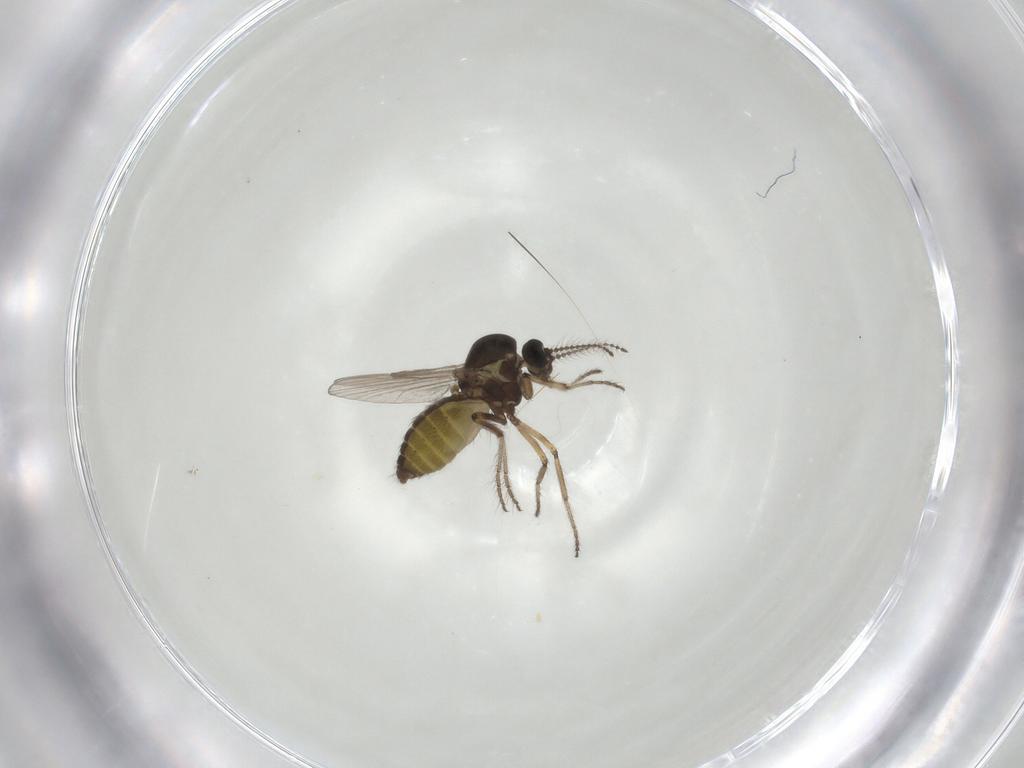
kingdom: Animalia
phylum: Arthropoda
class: Insecta
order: Diptera
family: Ceratopogonidae
